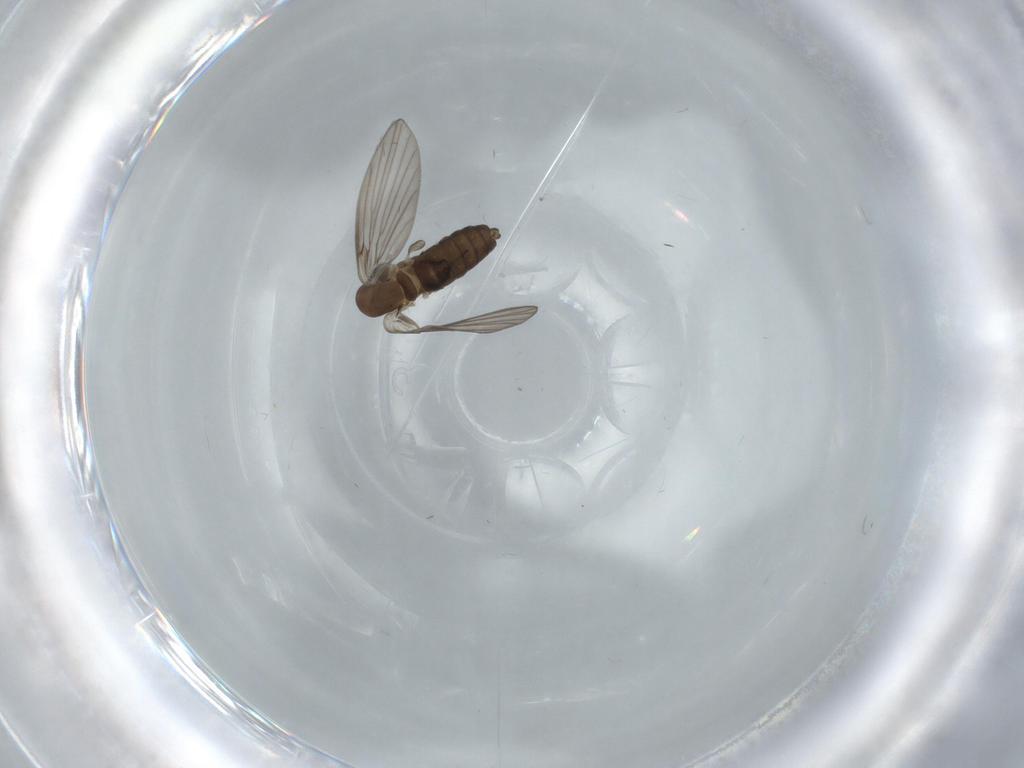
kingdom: Animalia
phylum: Arthropoda
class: Insecta
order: Diptera
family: Psychodidae
